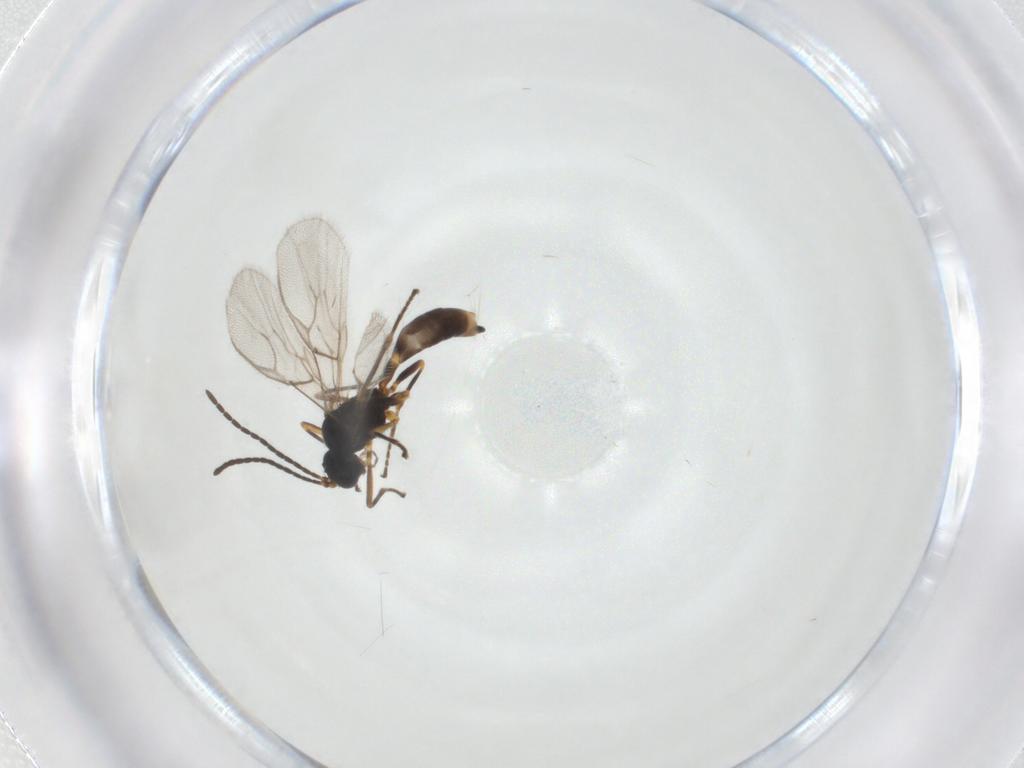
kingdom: Animalia
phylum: Arthropoda
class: Insecta
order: Hymenoptera
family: Braconidae
